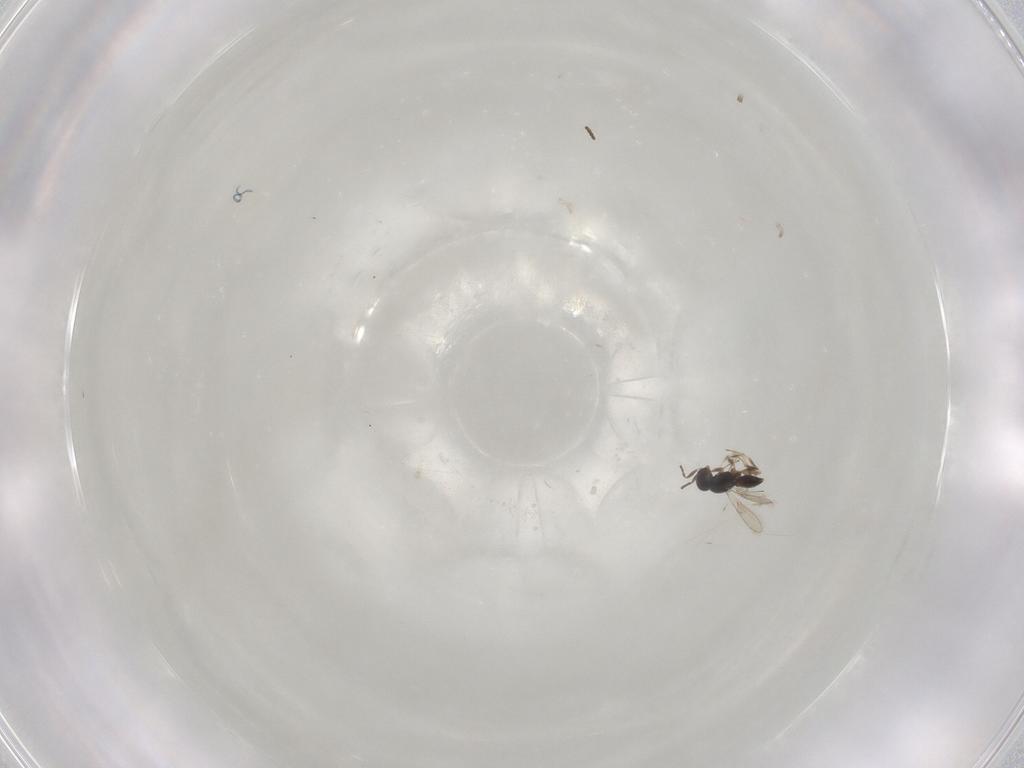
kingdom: Animalia
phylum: Arthropoda
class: Insecta
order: Hymenoptera
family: Scelionidae
